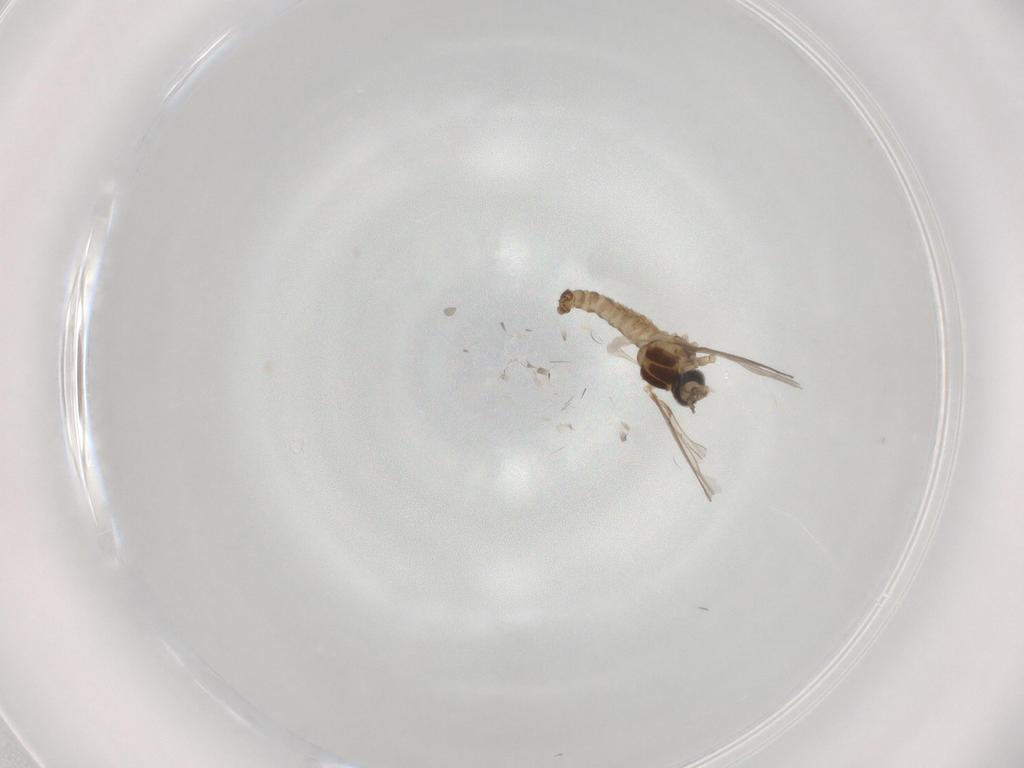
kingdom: Animalia
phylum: Arthropoda
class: Insecta
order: Diptera
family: Cecidomyiidae
